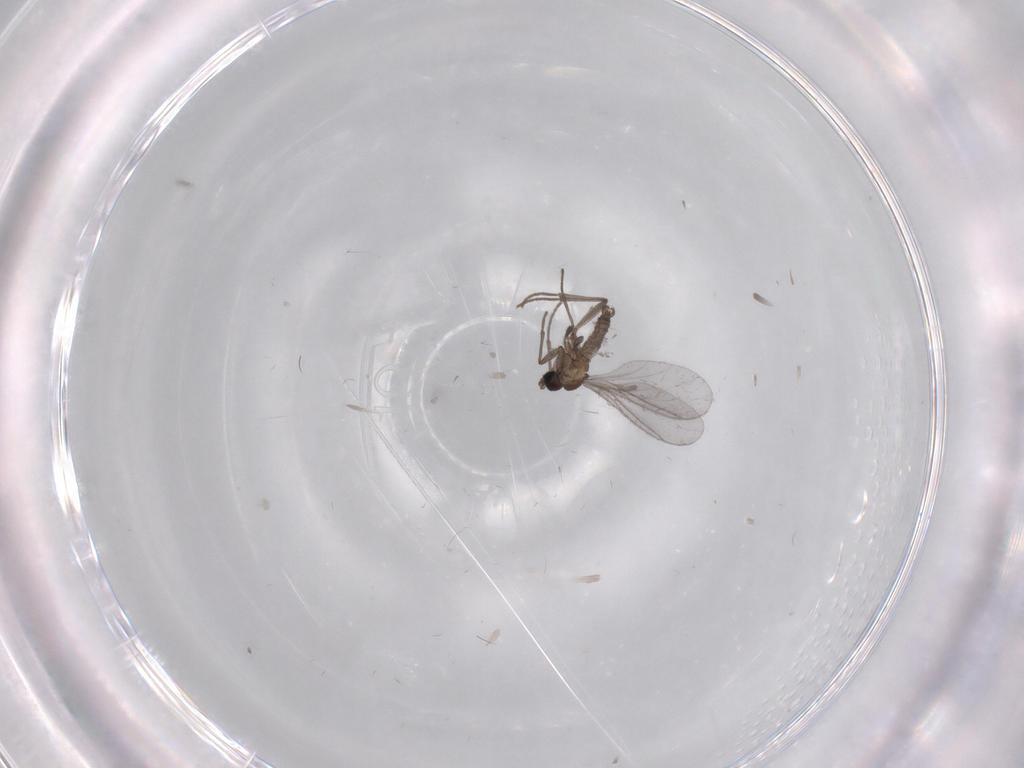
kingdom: Animalia
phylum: Arthropoda
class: Insecta
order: Diptera
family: Sciaridae
